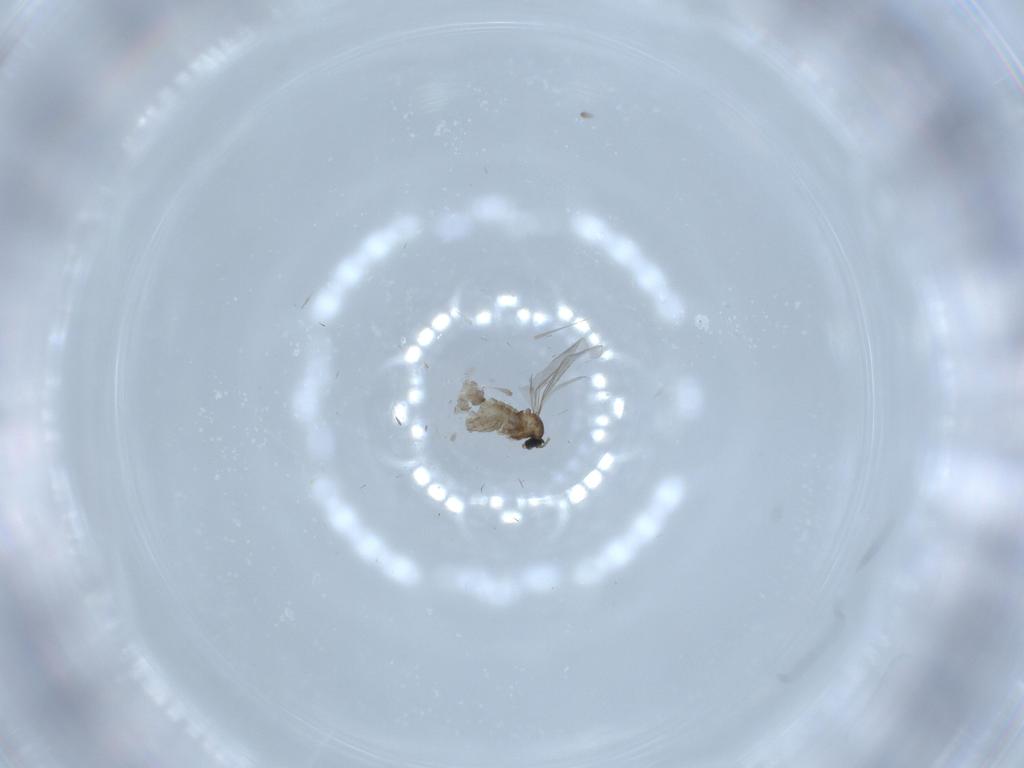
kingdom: Animalia
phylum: Arthropoda
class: Insecta
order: Diptera
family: Cecidomyiidae
